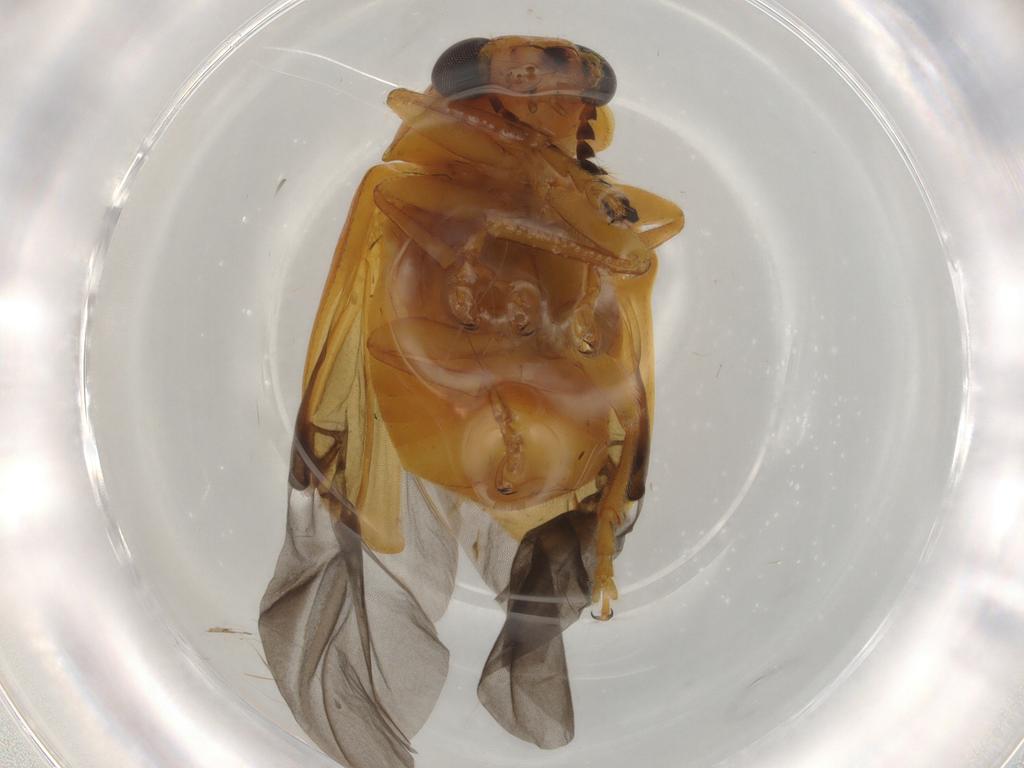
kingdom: Animalia
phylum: Arthropoda
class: Insecta
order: Coleoptera
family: Chrysomelidae
